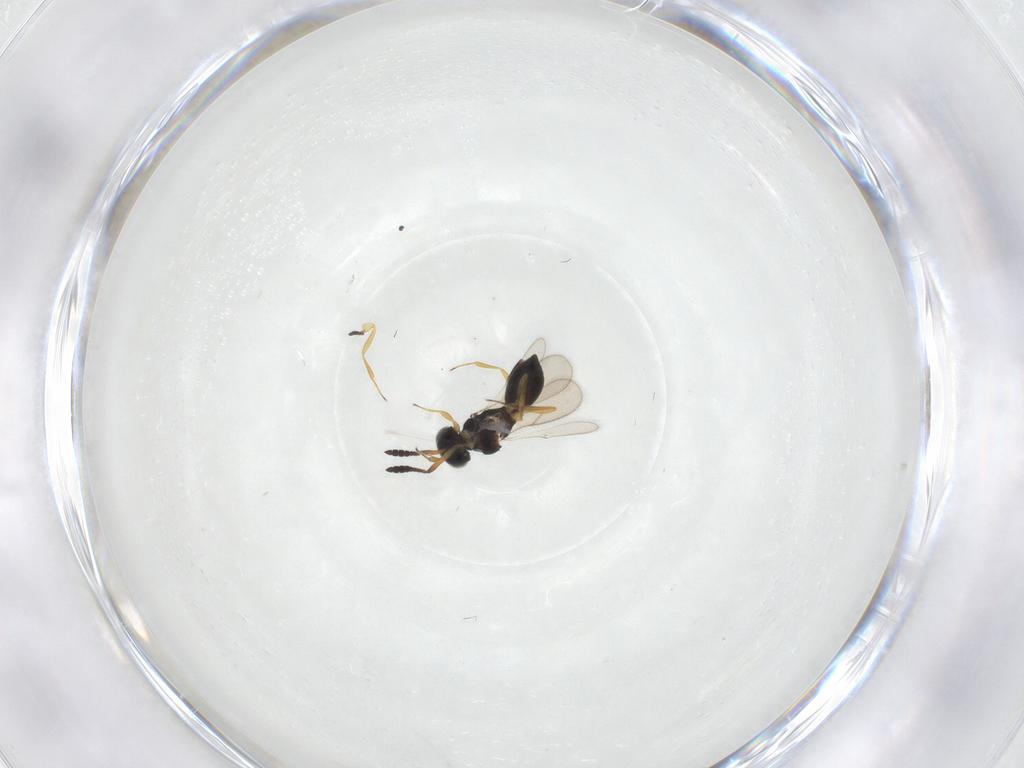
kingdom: Animalia
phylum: Arthropoda
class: Insecta
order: Hymenoptera
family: Scelionidae
